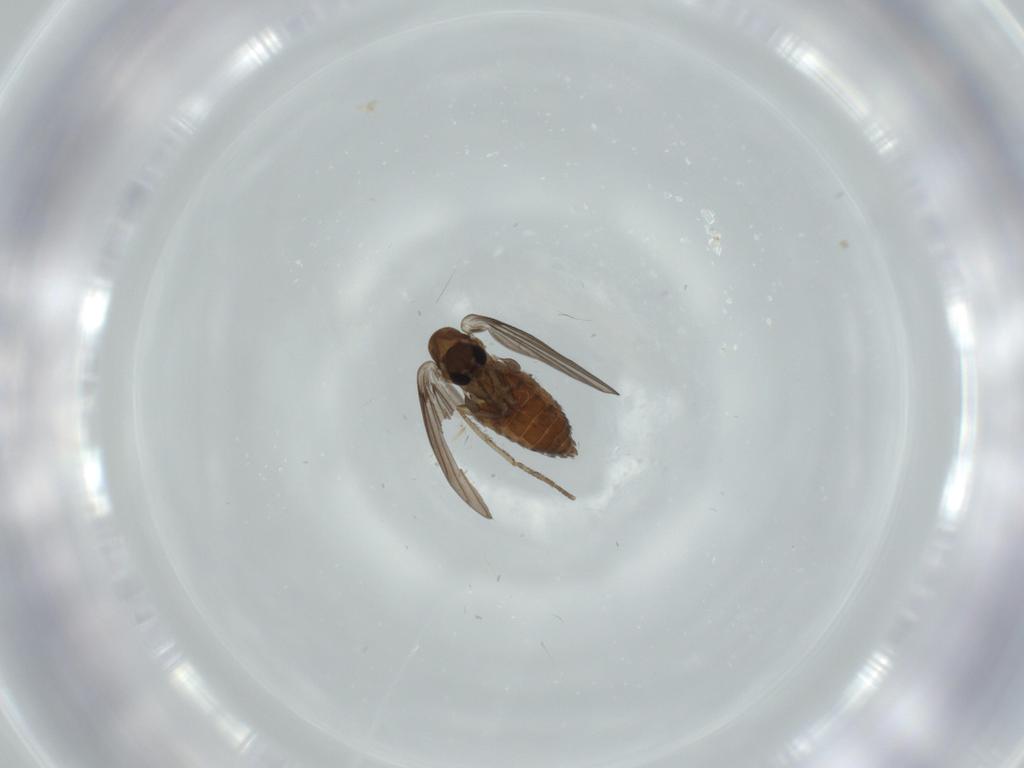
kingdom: Animalia
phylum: Arthropoda
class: Insecta
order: Diptera
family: Psychodidae
